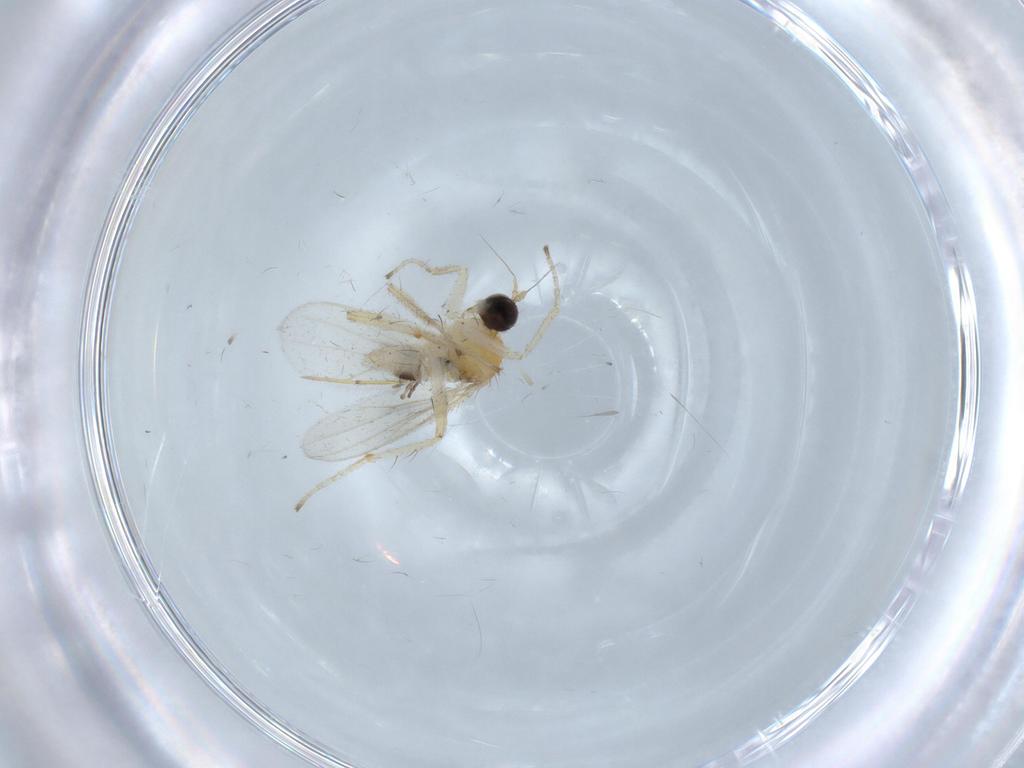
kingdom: Animalia
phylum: Arthropoda
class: Insecta
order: Diptera
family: Hybotidae
